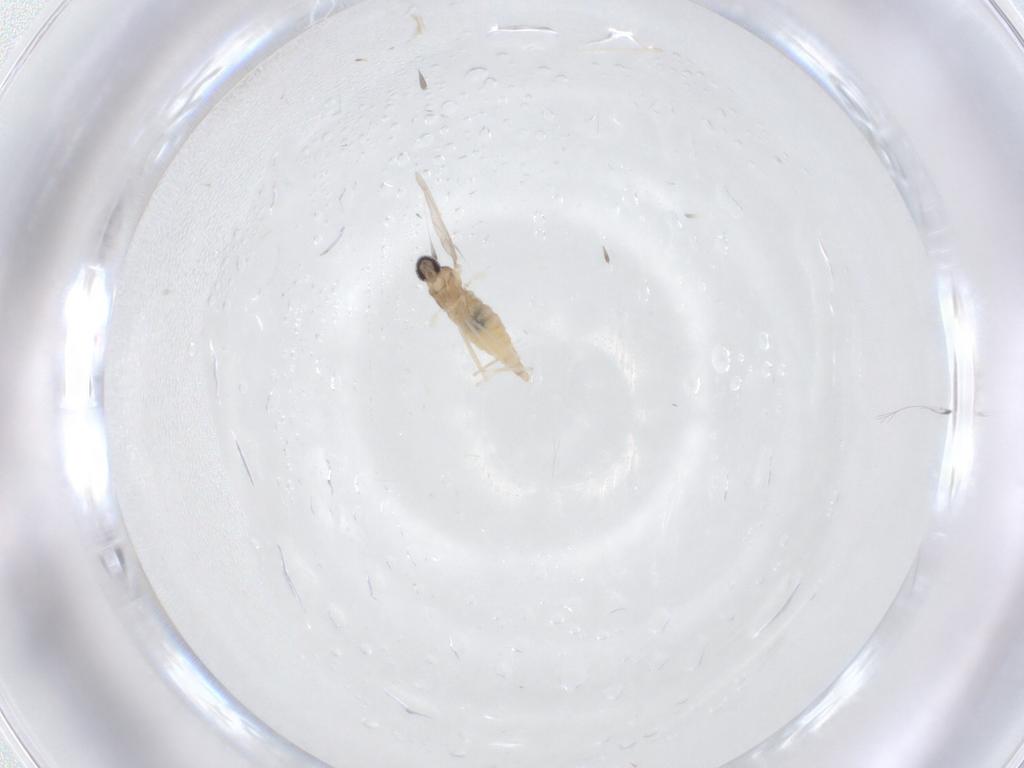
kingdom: Animalia
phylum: Arthropoda
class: Insecta
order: Diptera
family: Cecidomyiidae
